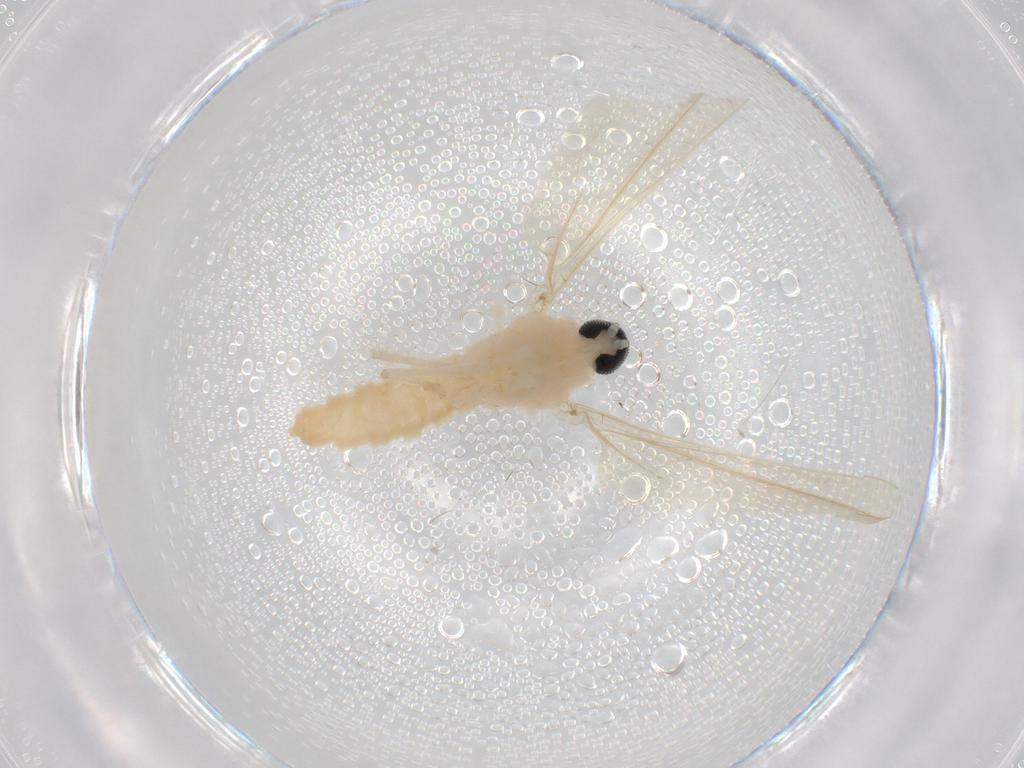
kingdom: Animalia
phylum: Arthropoda
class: Insecta
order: Diptera
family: Cecidomyiidae
